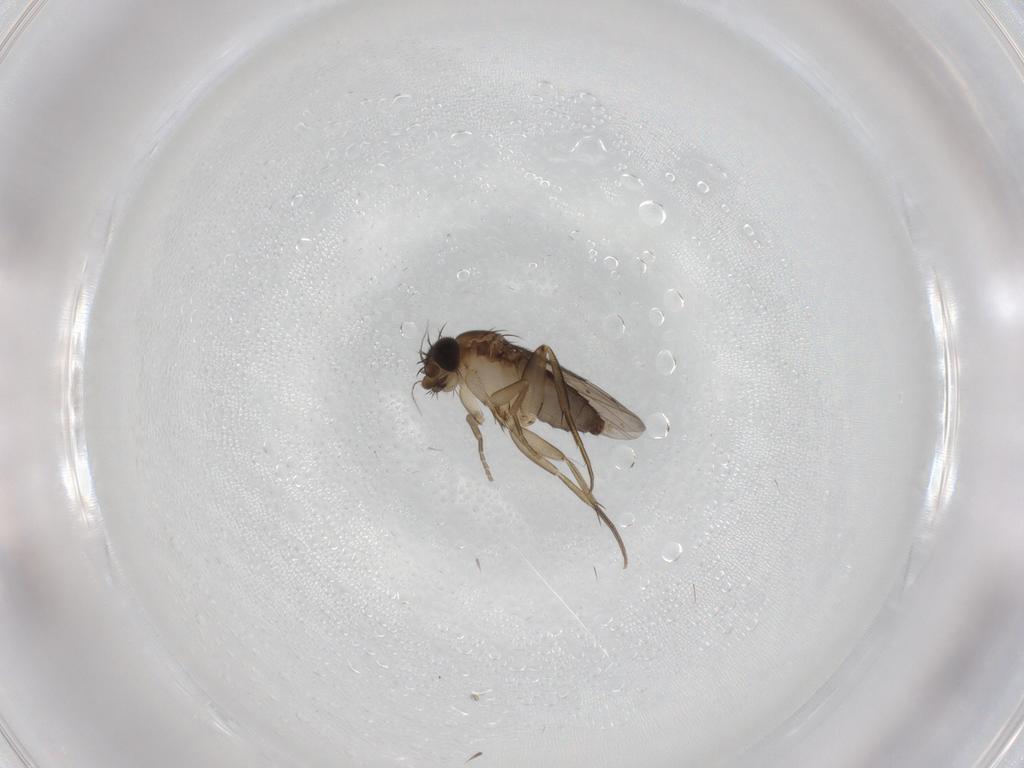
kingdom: Animalia
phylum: Arthropoda
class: Insecta
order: Diptera
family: Phoridae
